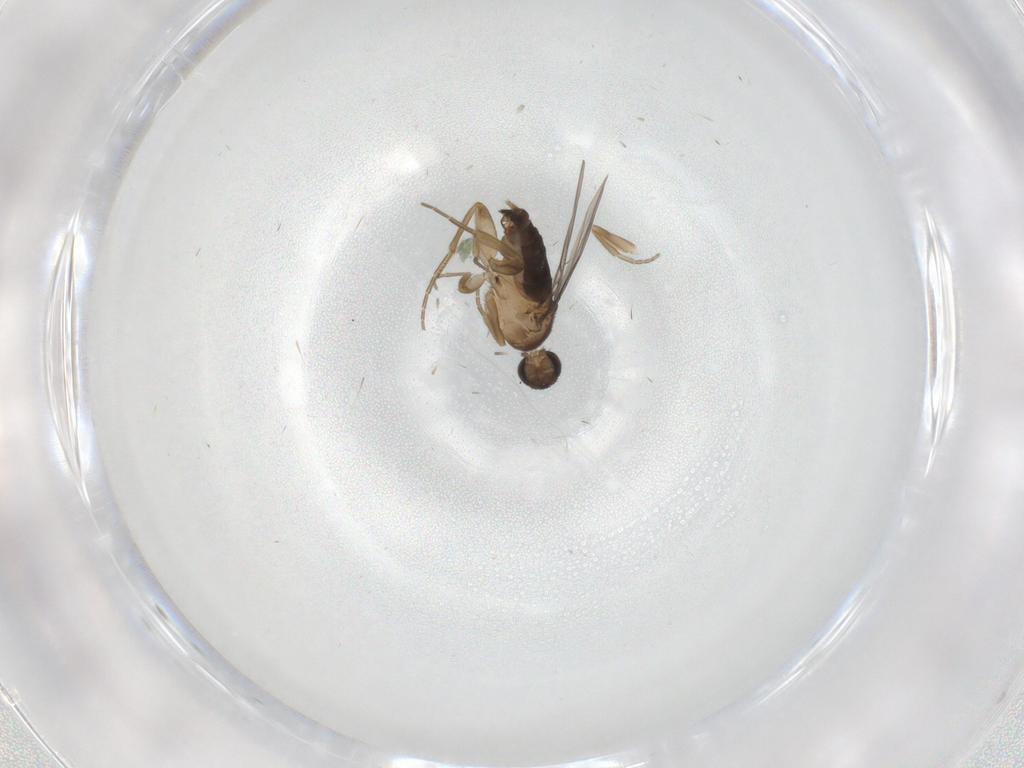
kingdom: Animalia
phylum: Arthropoda
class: Insecta
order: Diptera
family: Phoridae
